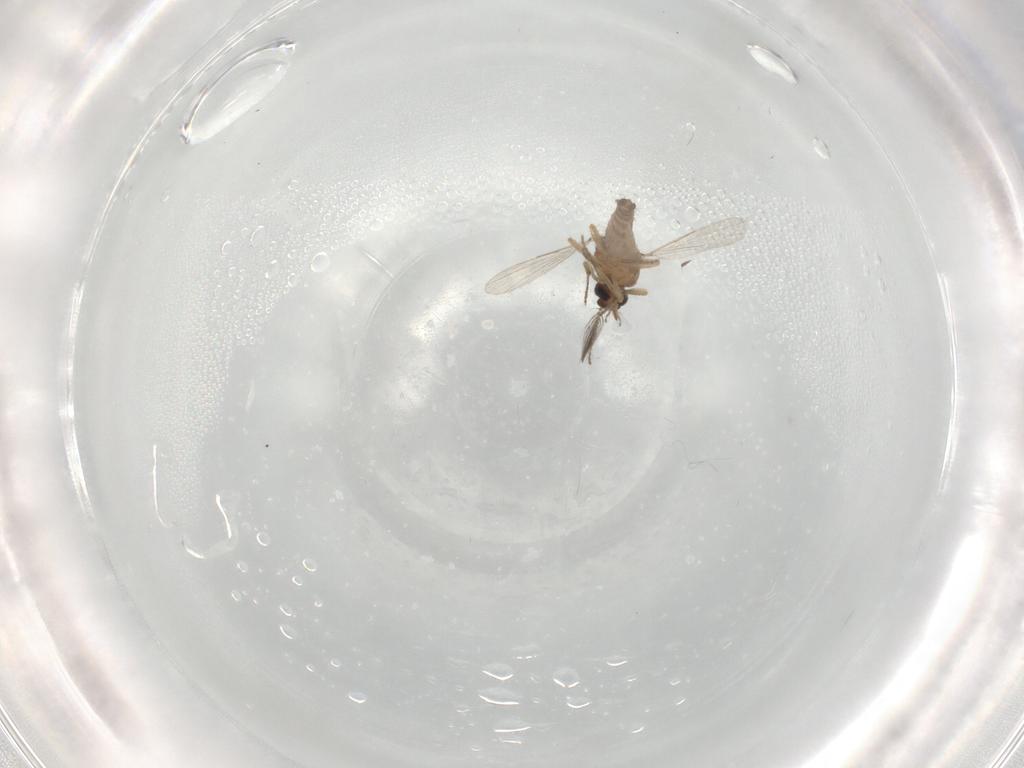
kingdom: Animalia
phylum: Arthropoda
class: Insecta
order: Diptera
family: Ceratopogonidae
